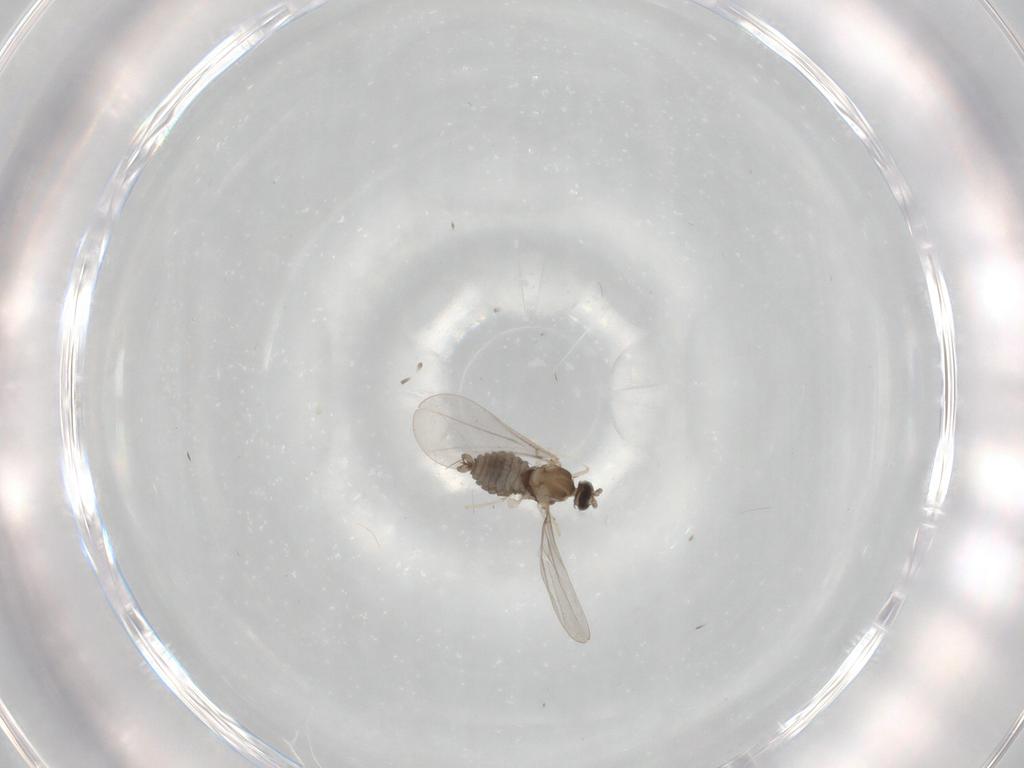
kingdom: Animalia
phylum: Arthropoda
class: Insecta
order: Diptera
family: Cecidomyiidae
